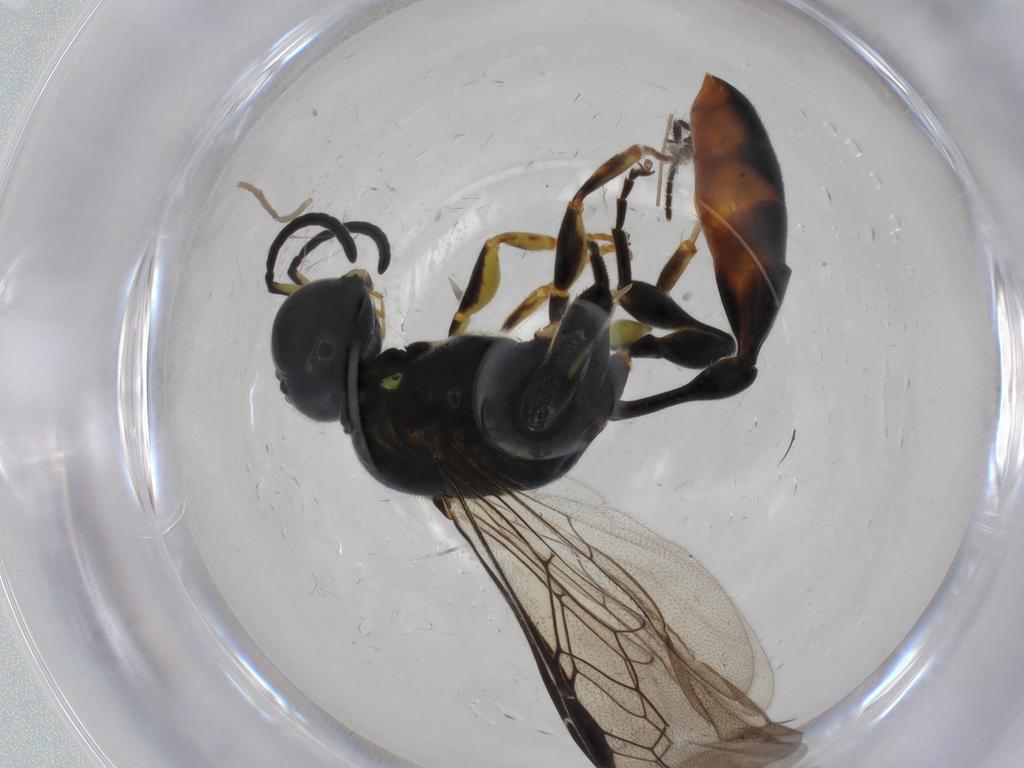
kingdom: Animalia
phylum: Arthropoda
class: Insecta
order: Hymenoptera
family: Crabronidae
